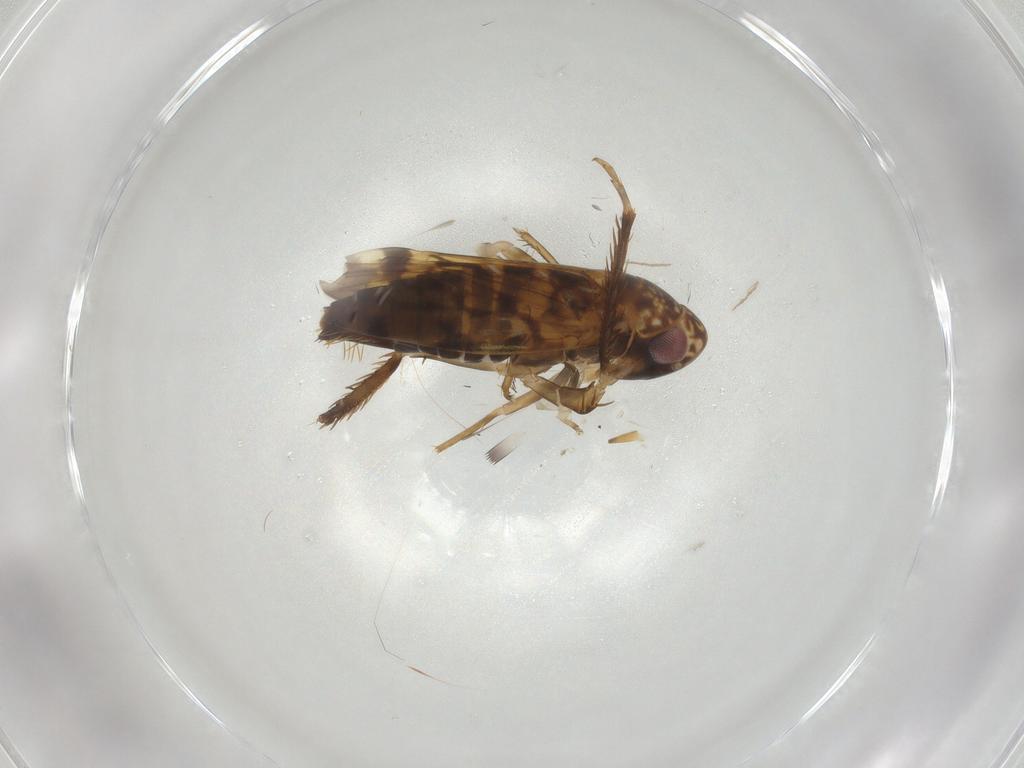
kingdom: Animalia
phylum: Arthropoda
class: Insecta
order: Hemiptera
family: Cicadellidae
